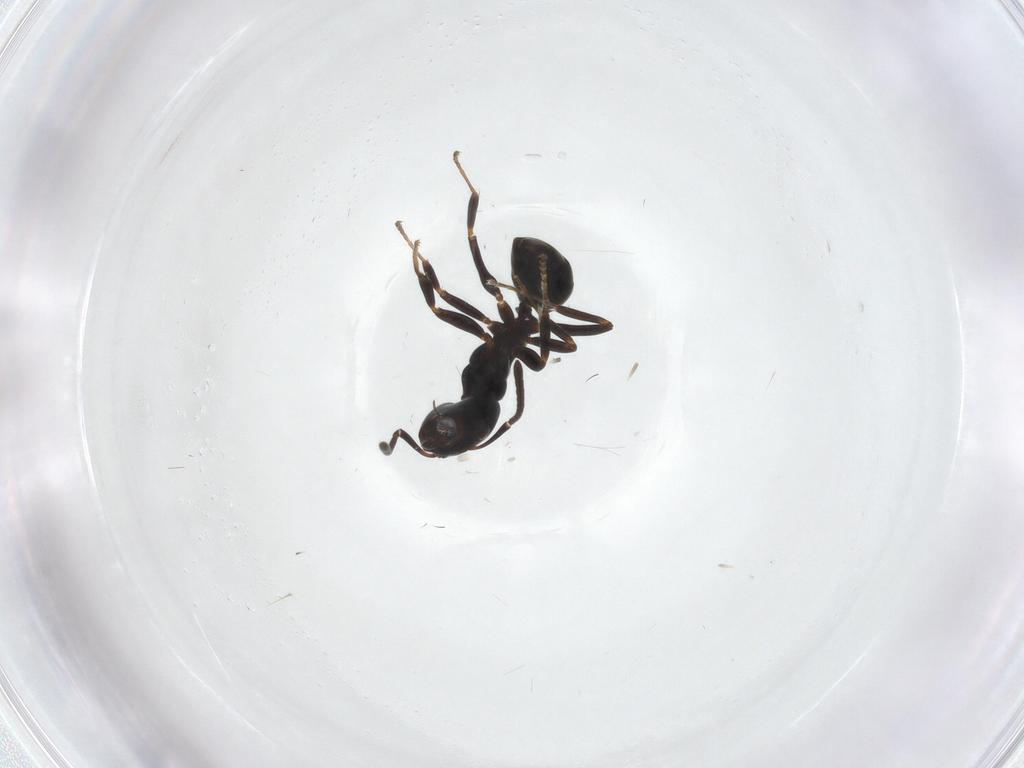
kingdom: Animalia
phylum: Arthropoda
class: Insecta
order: Hymenoptera
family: Formicidae
